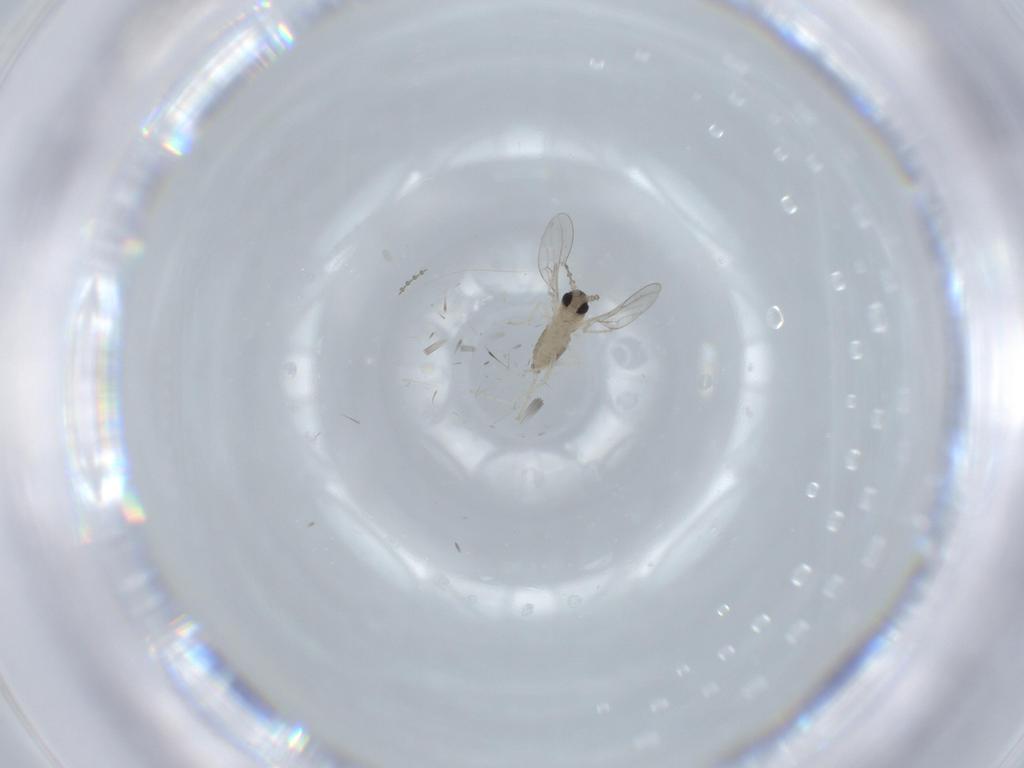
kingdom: Animalia
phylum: Arthropoda
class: Insecta
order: Diptera
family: Cecidomyiidae
